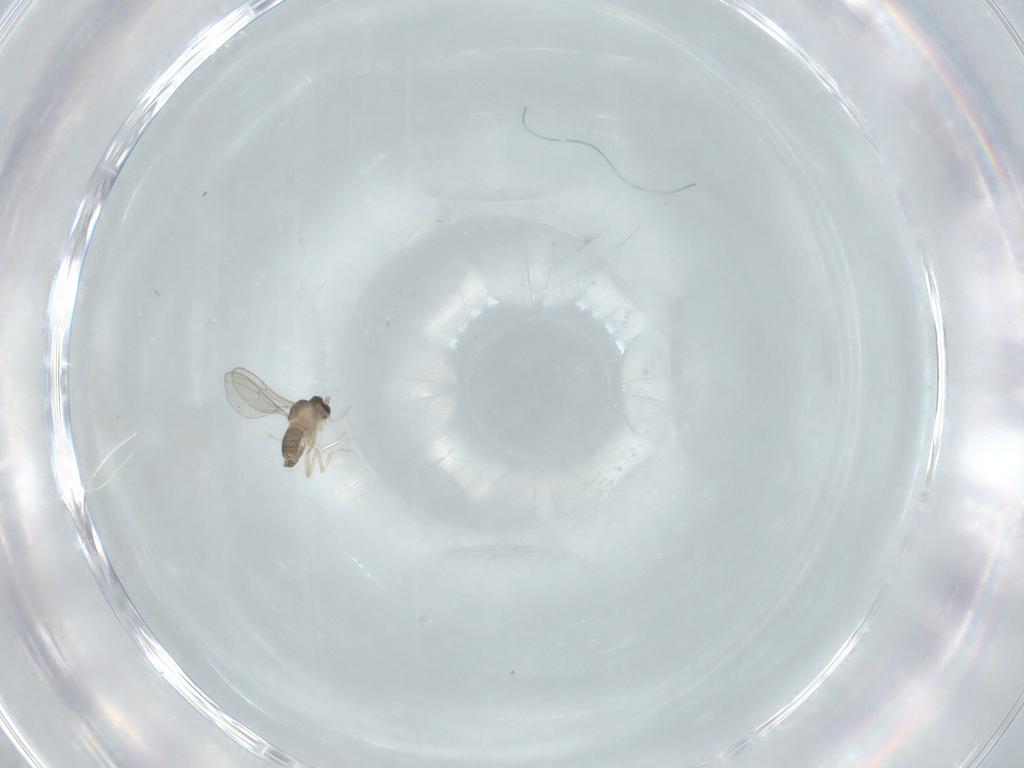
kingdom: Animalia
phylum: Arthropoda
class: Insecta
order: Diptera
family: Cecidomyiidae
